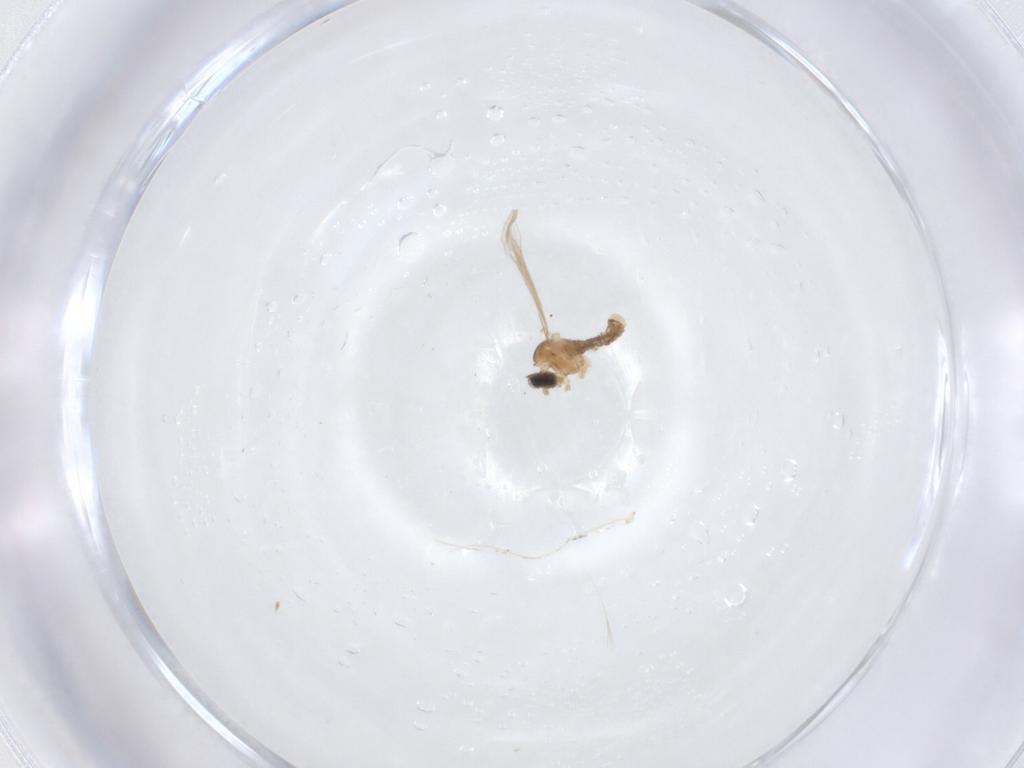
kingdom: Animalia
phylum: Arthropoda
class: Insecta
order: Diptera
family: Cecidomyiidae
